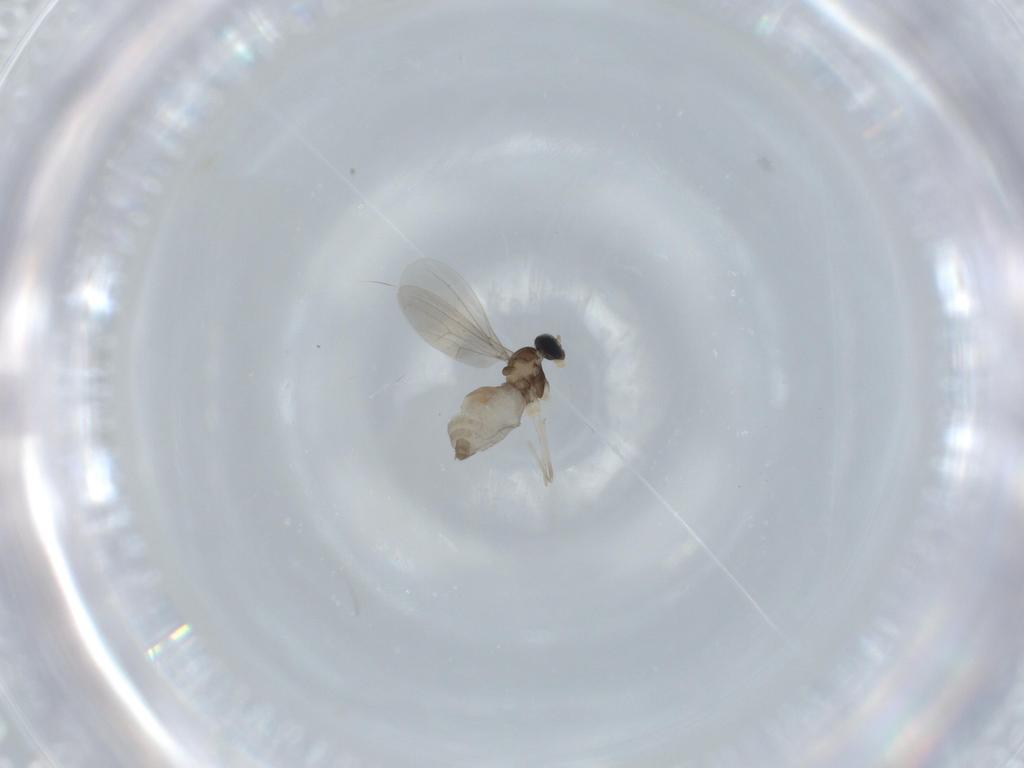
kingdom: Animalia
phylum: Arthropoda
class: Insecta
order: Diptera
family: Cecidomyiidae
